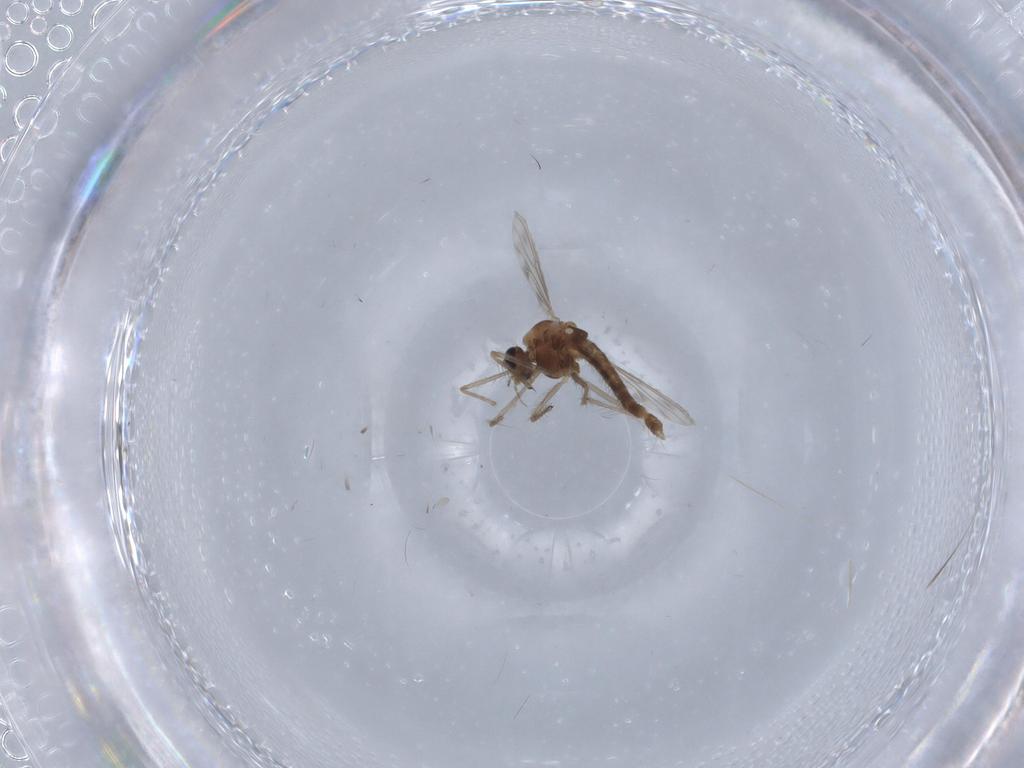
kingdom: Animalia
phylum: Arthropoda
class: Insecta
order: Diptera
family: Chironomidae
